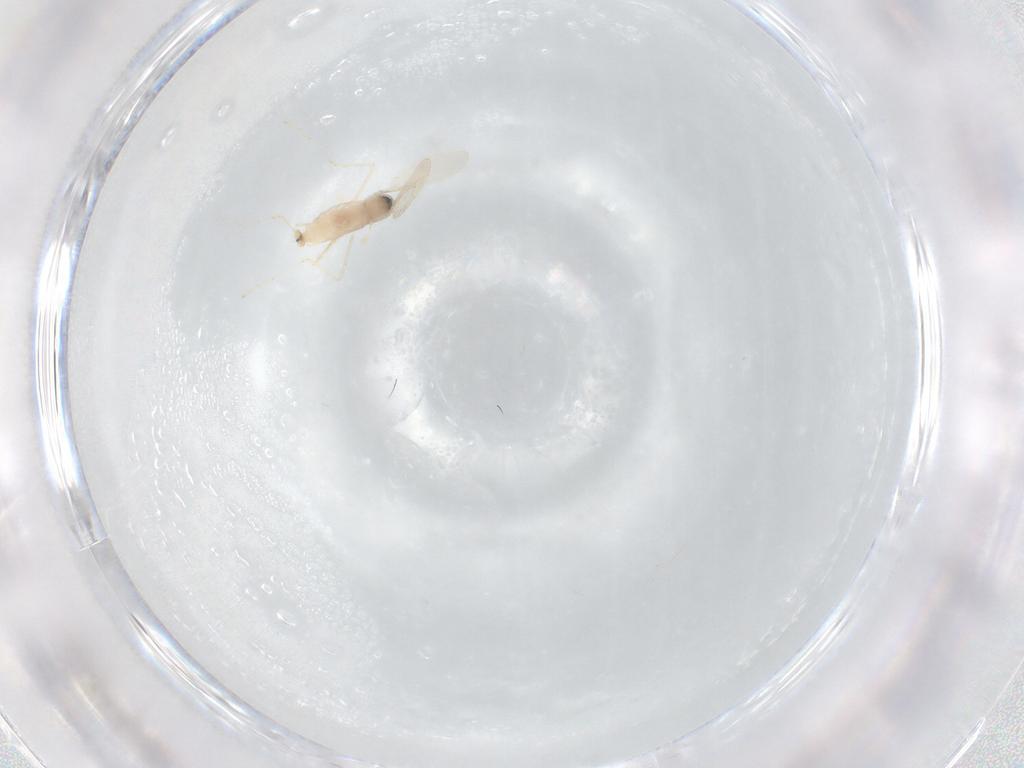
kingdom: Animalia
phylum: Arthropoda
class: Insecta
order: Diptera
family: Cecidomyiidae
